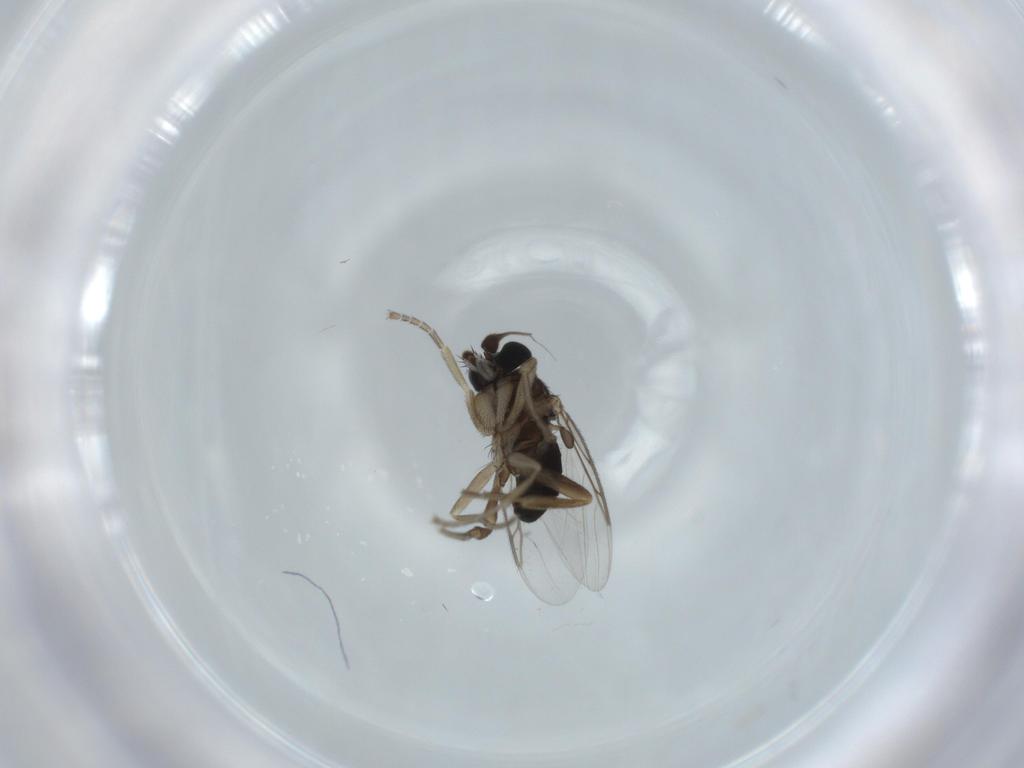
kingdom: Animalia
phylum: Arthropoda
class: Insecta
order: Diptera
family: Phoridae
